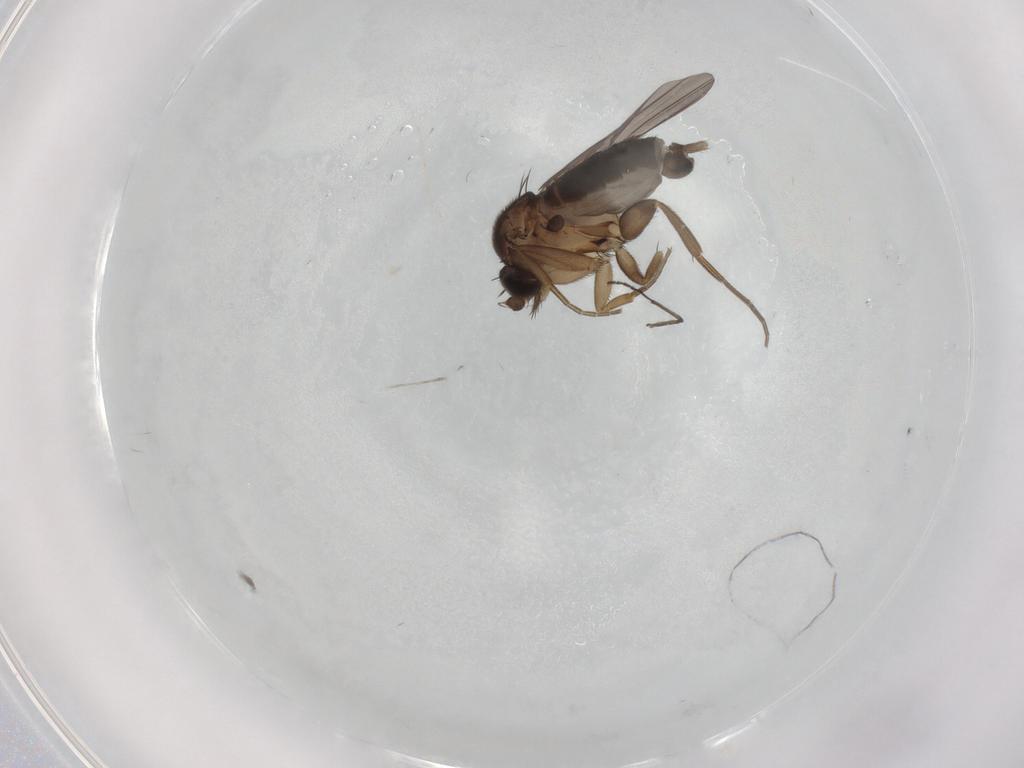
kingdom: Animalia
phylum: Arthropoda
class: Insecta
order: Diptera
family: Phoridae
